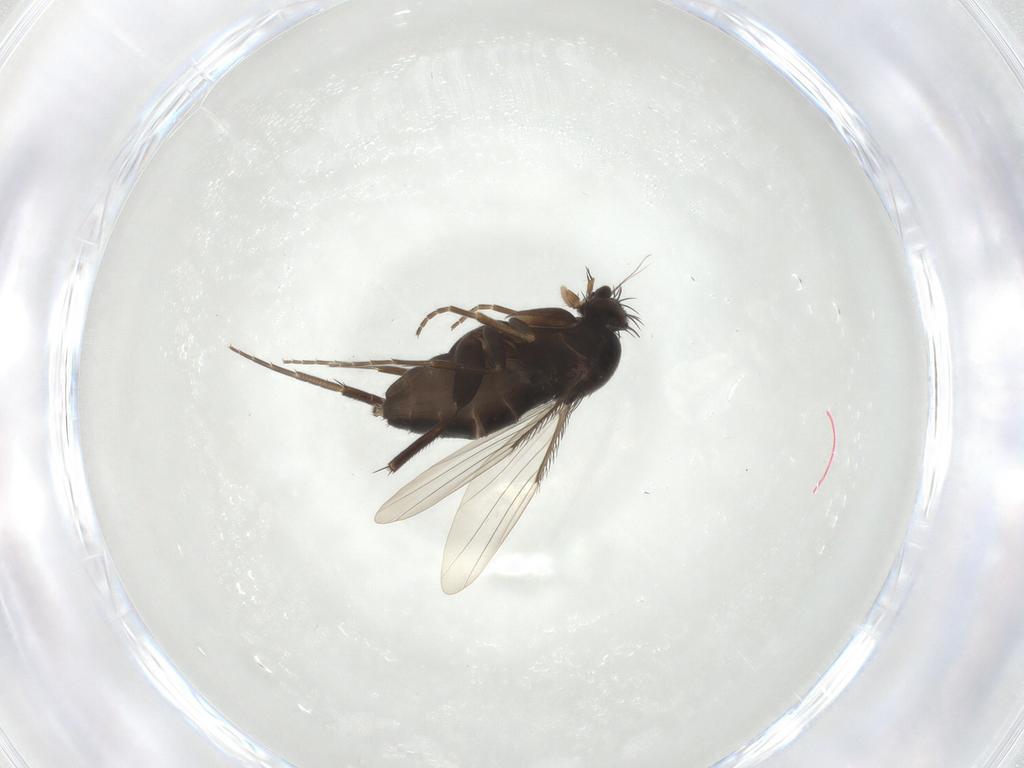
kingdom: Animalia
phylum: Arthropoda
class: Insecta
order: Diptera
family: Phoridae
